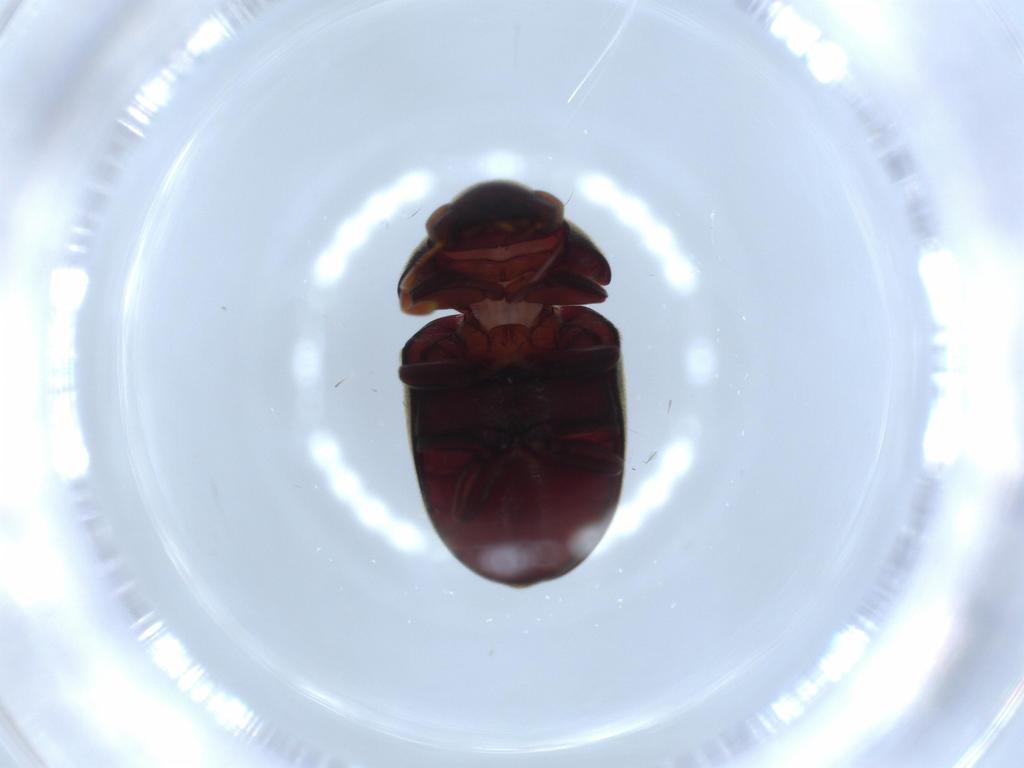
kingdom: Animalia
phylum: Arthropoda
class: Insecta
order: Coleoptera
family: Ptinidae
